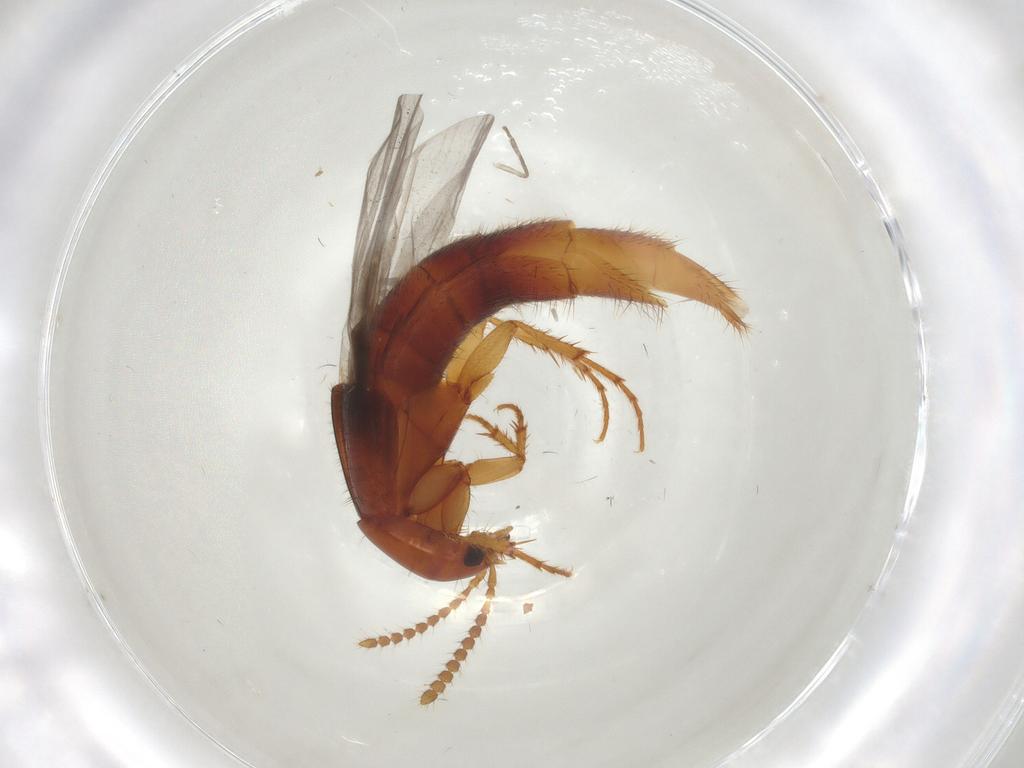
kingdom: Animalia
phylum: Arthropoda
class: Insecta
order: Coleoptera
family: Staphylinidae
